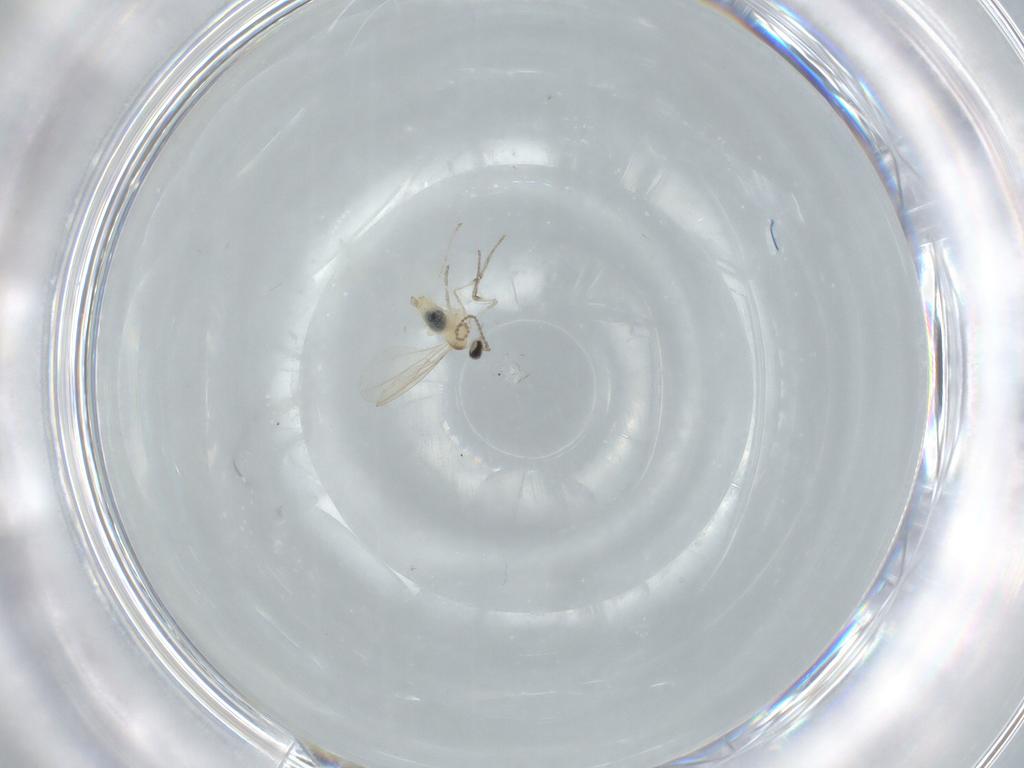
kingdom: Animalia
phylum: Arthropoda
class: Insecta
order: Diptera
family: Cecidomyiidae
